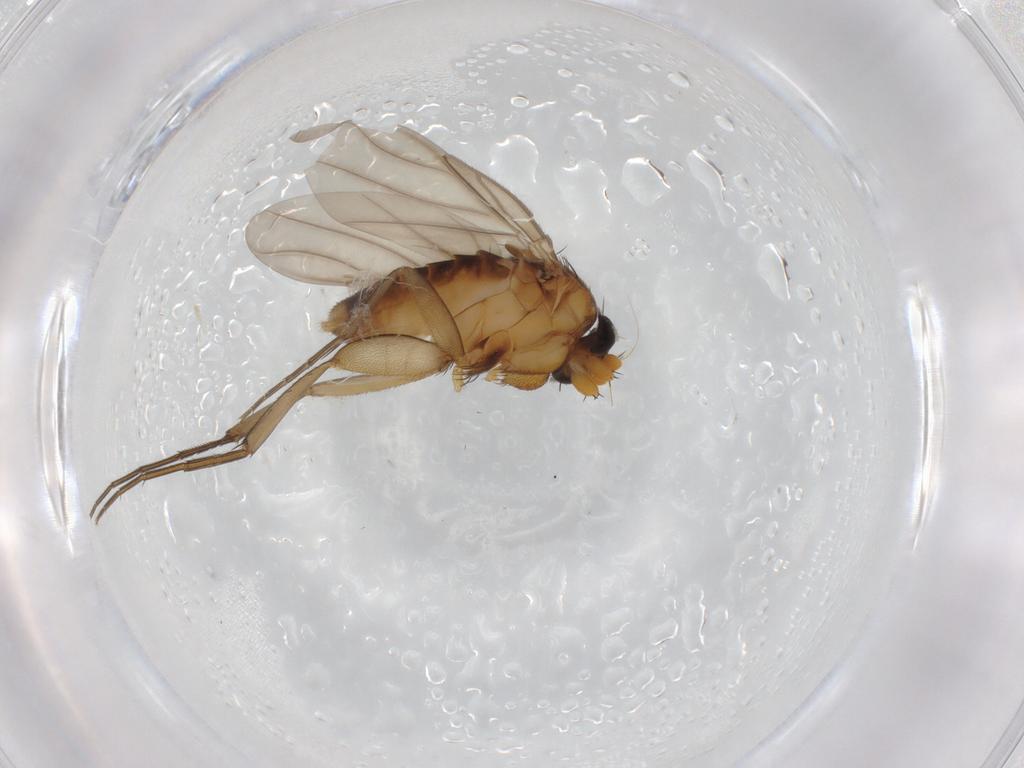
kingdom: Animalia
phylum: Arthropoda
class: Insecta
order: Diptera
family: Cecidomyiidae
